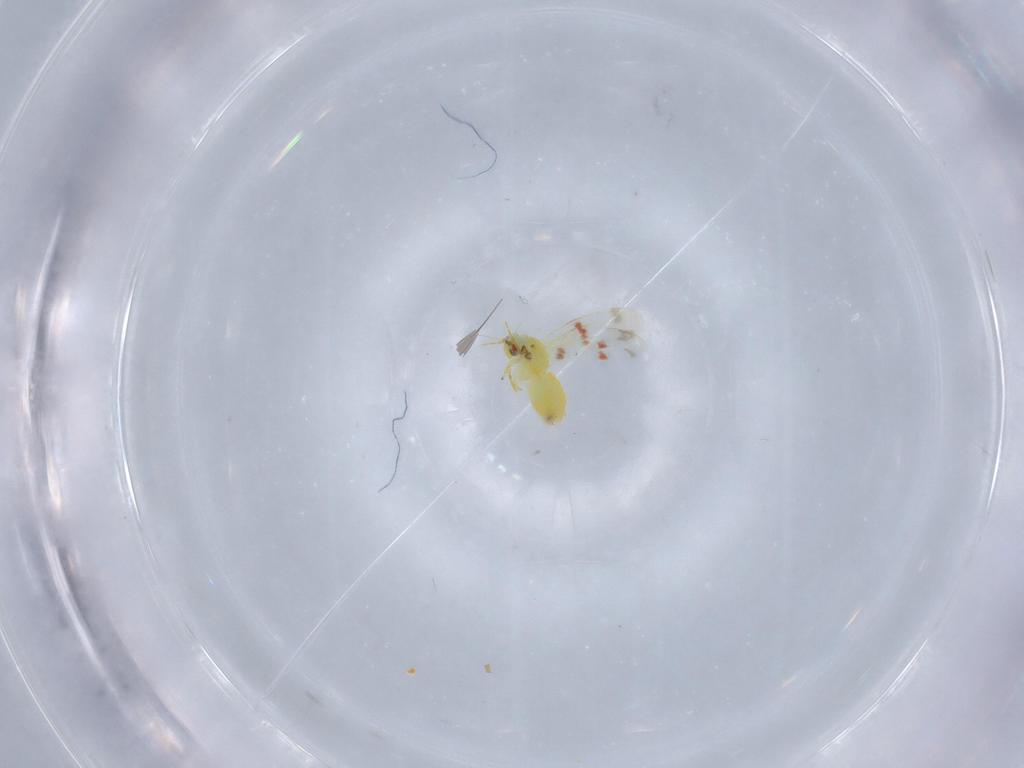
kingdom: Animalia
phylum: Arthropoda
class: Insecta
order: Hemiptera
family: Aleyrodidae
